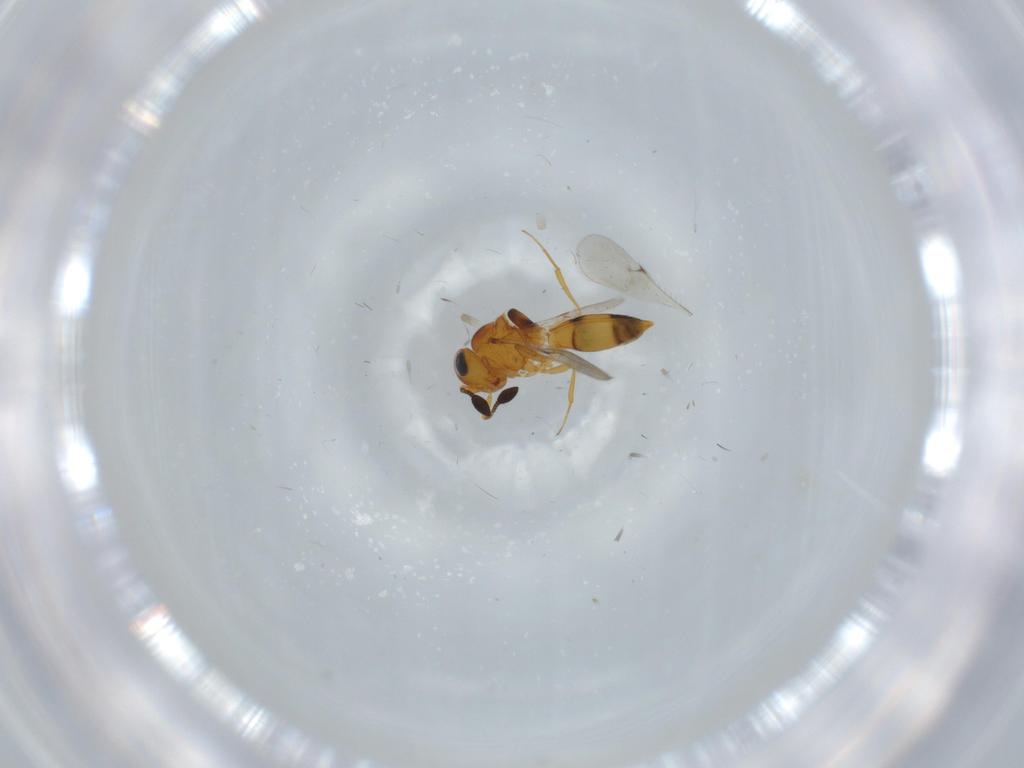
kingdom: Animalia
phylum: Arthropoda
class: Insecta
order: Hymenoptera
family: Scelionidae
